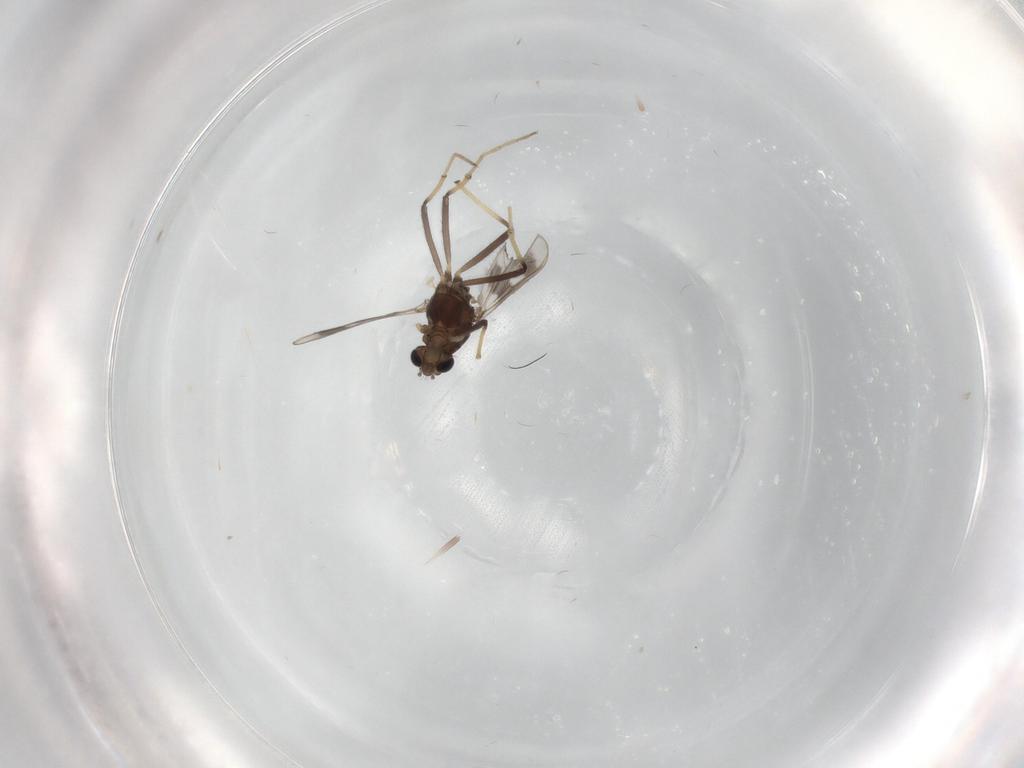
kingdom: Animalia
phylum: Arthropoda
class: Insecta
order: Diptera
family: Chironomidae
